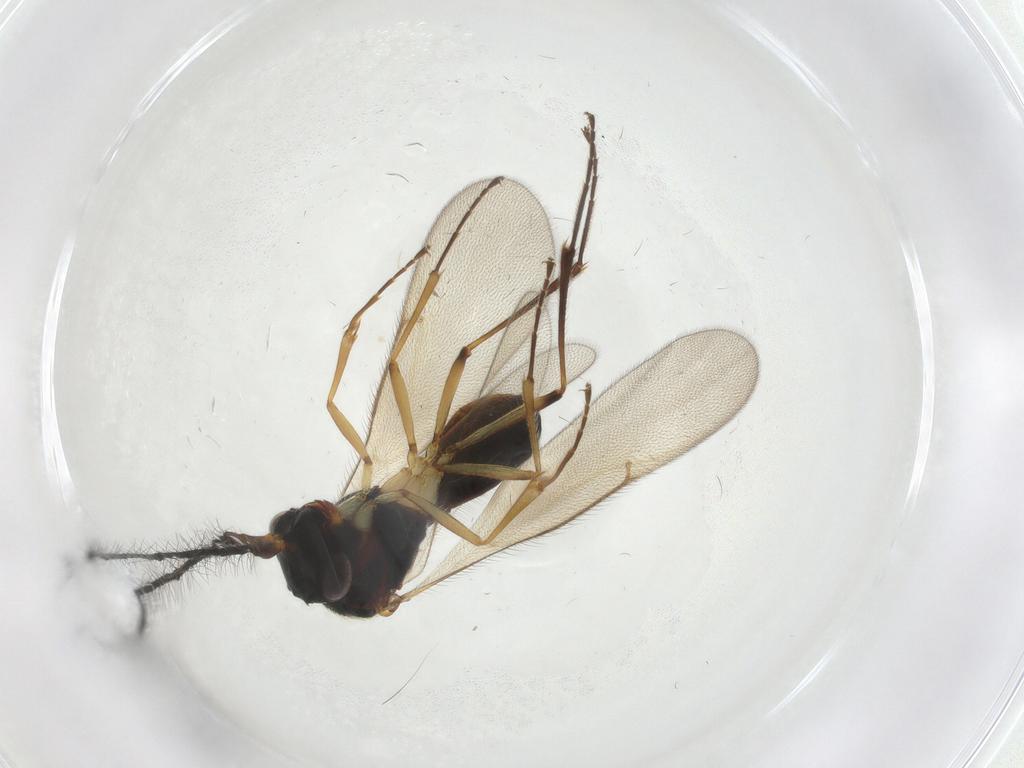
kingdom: Animalia
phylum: Arthropoda
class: Insecta
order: Hymenoptera
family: Scelionidae
